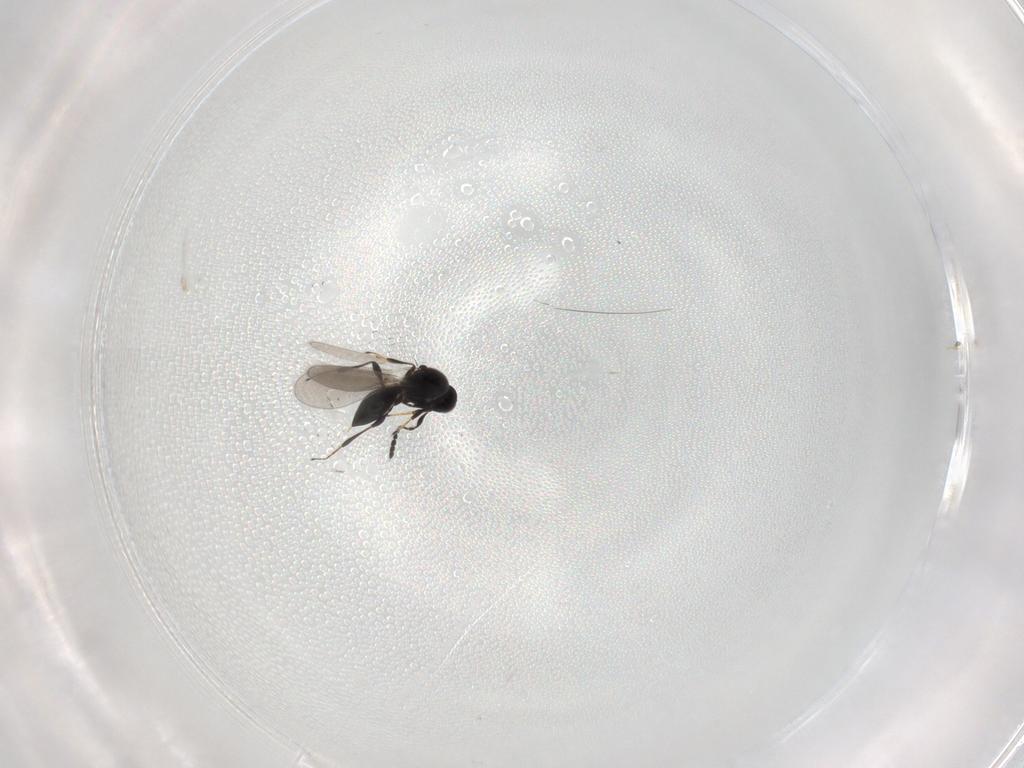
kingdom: Animalia
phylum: Arthropoda
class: Insecta
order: Hymenoptera
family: Platygastridae
